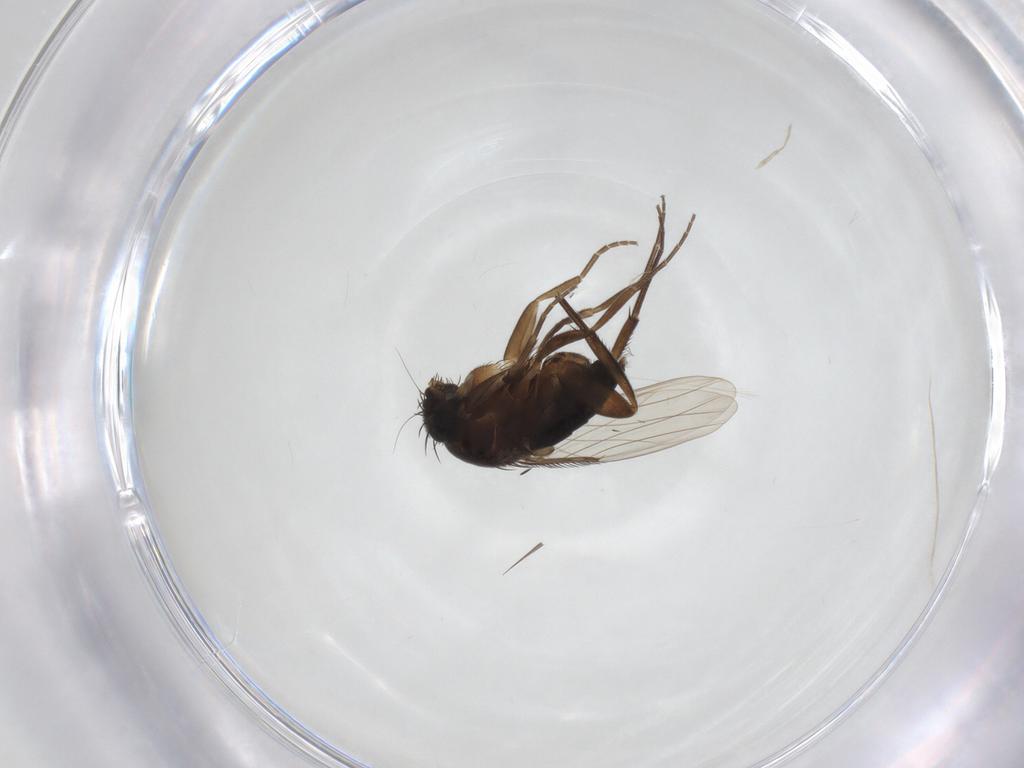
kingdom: Animalia
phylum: Arthropoda
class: Insecta
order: Diptera
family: Phoridae
